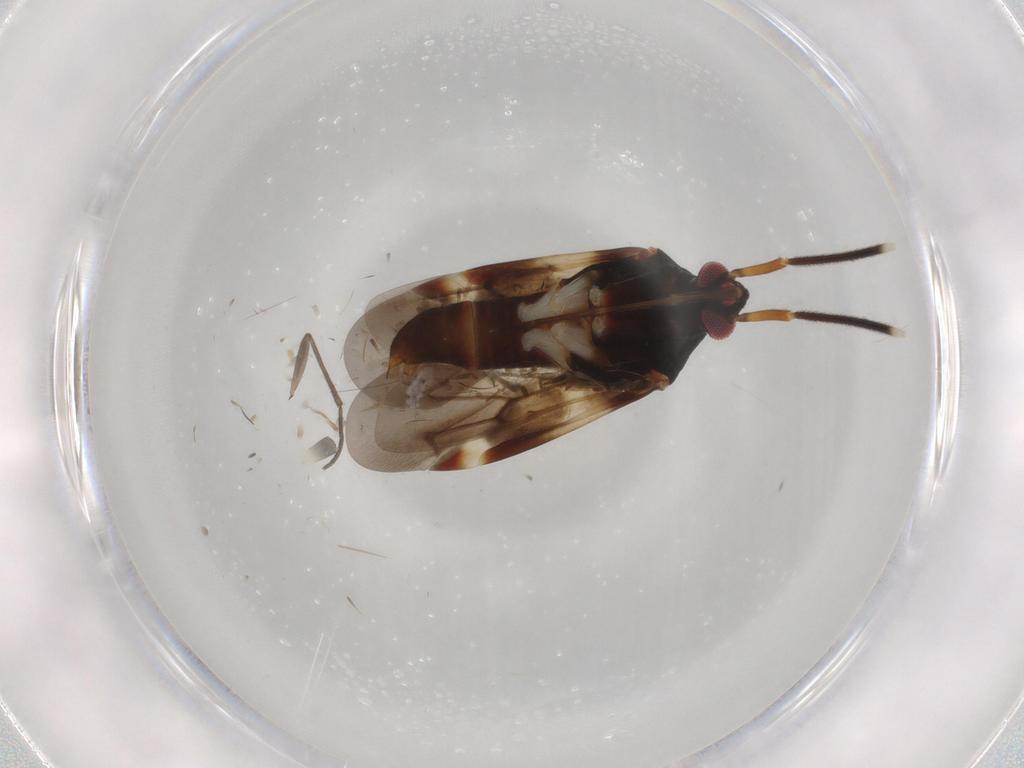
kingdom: Animalia
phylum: Arthropoda
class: Insecta
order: Hemiptera
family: Miridae
